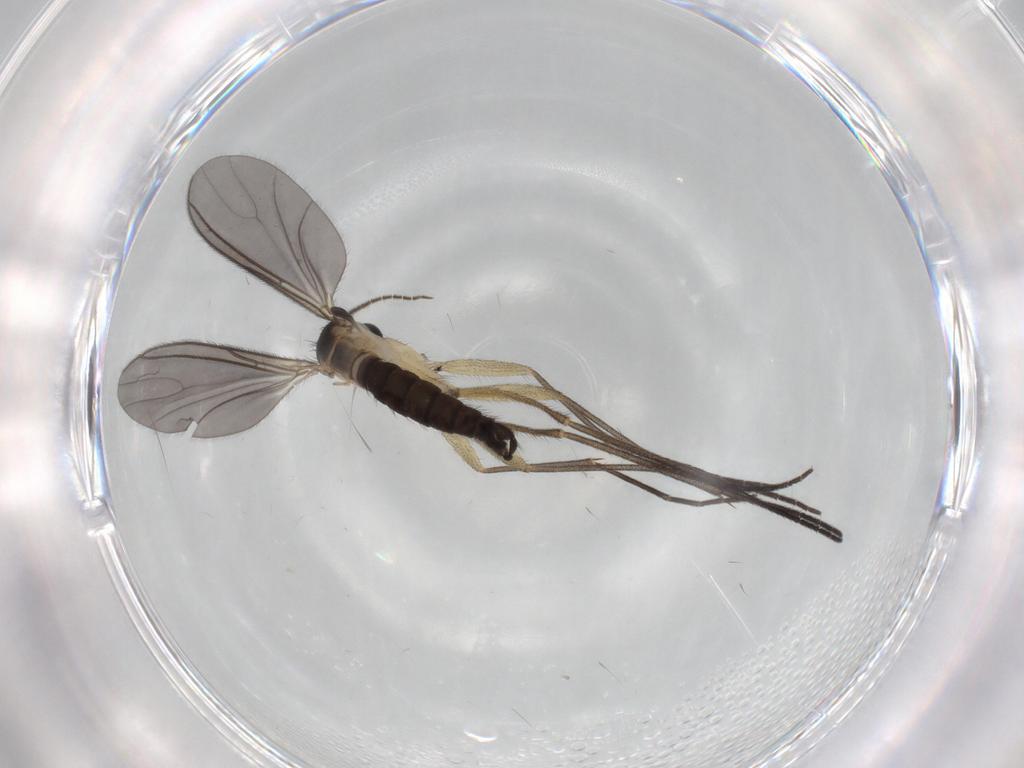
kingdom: Animalia
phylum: Arthropoda
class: Insecta
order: Diptera
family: Sciaridae
